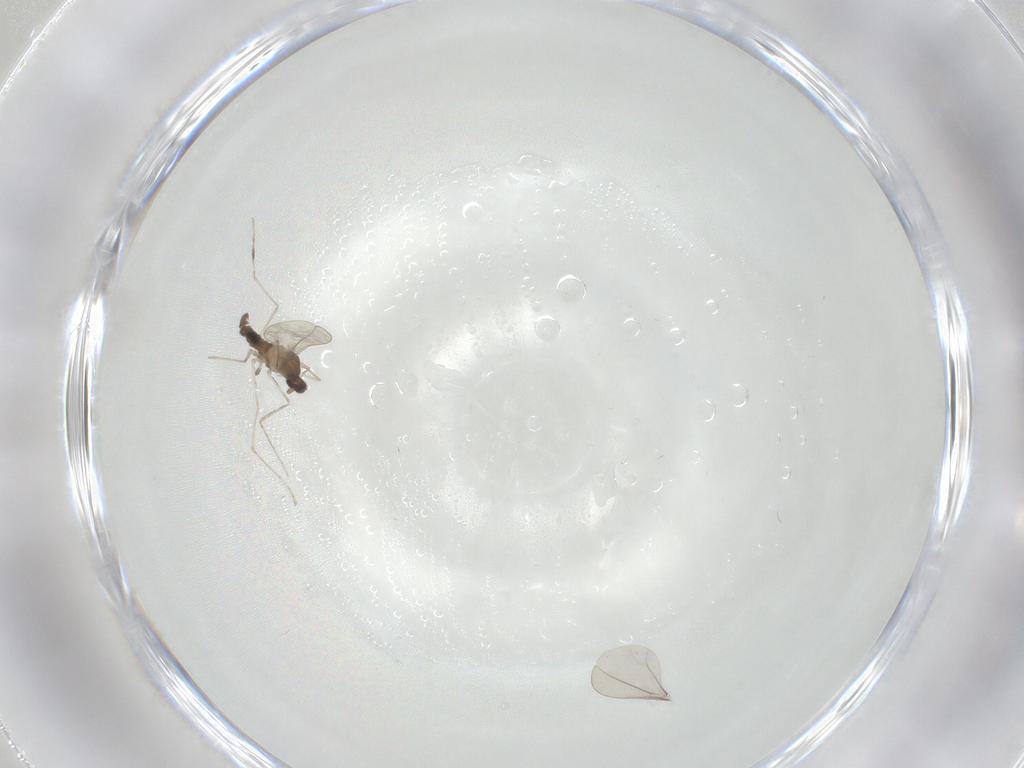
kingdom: Animalia
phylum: Arthropoda
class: Insecta
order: Diptera
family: Cecidomyiidae
